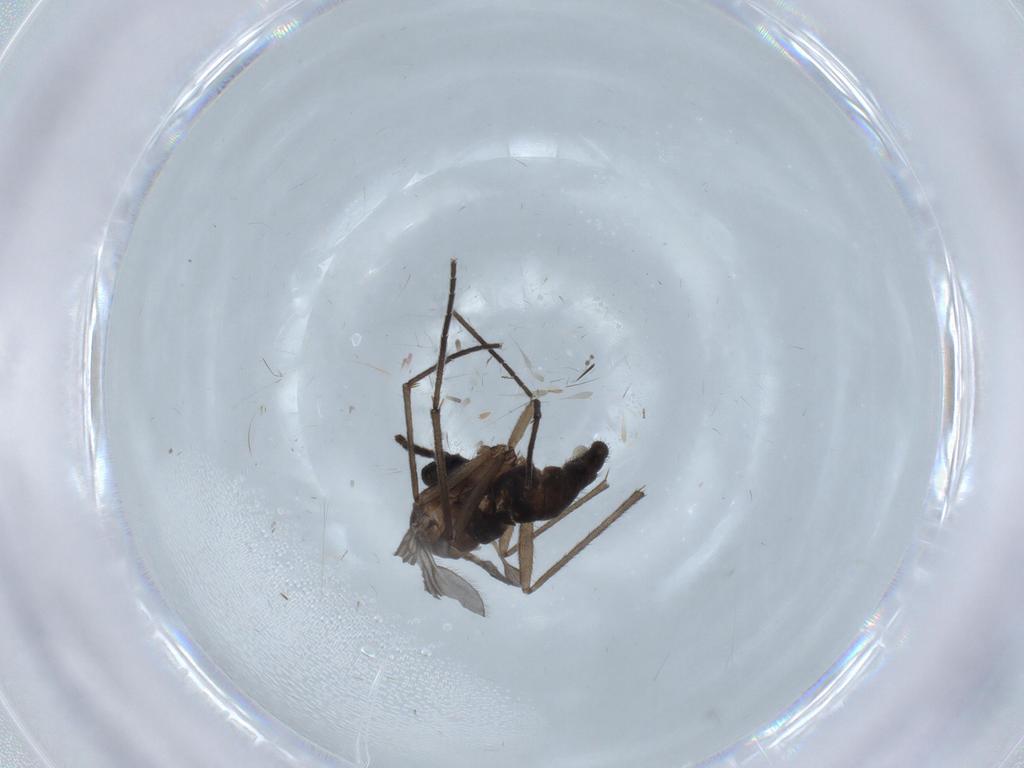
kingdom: Animalia
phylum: Arthropoda
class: Insecta
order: Diptera
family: Sciaridae
